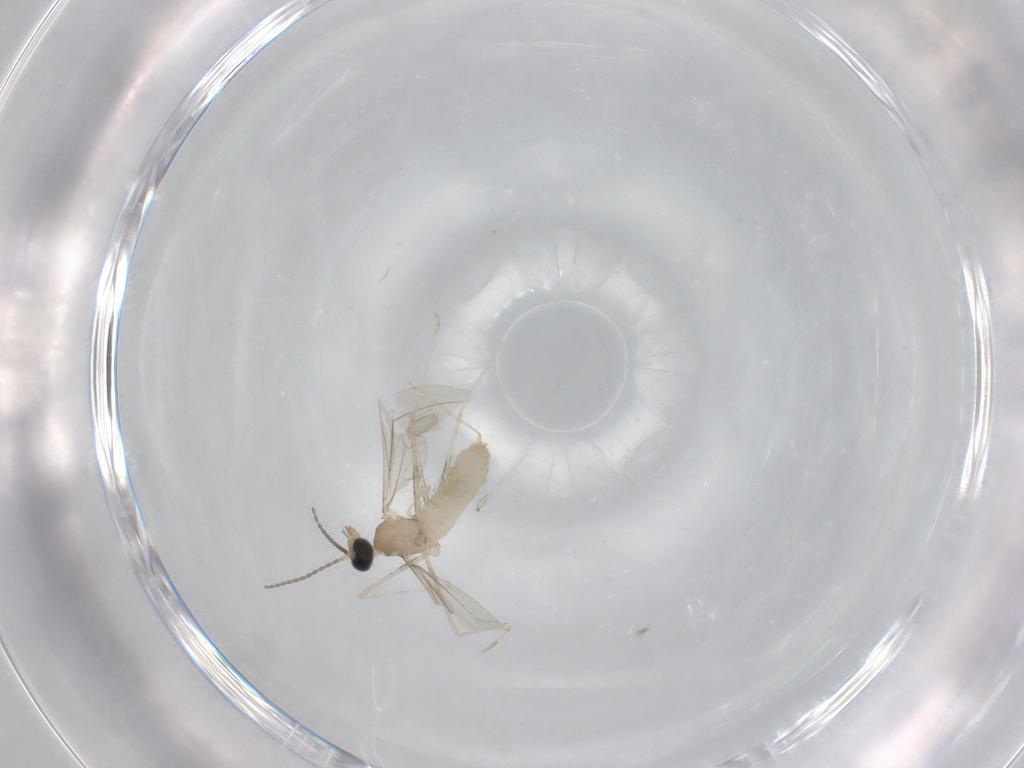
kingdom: Animalia
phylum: Arthropoda
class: Insecta
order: Diptera
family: Cecidomyiidae
